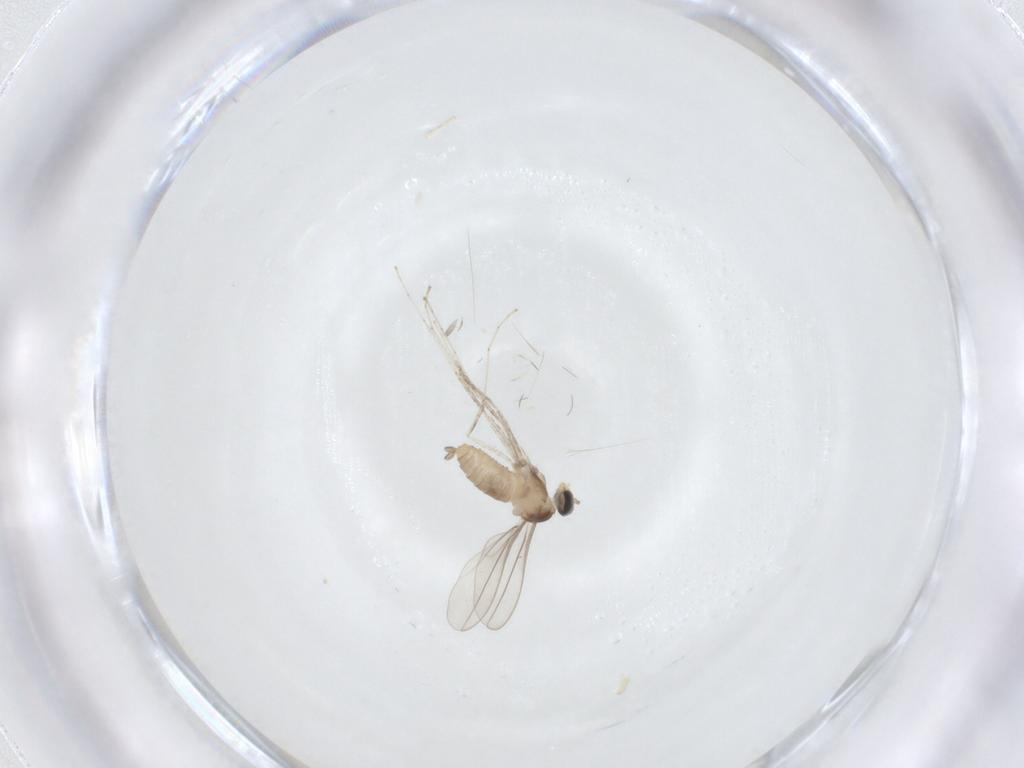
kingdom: Animalia
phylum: Arthropoda
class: Insecta
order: Diptera
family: Cecidomyiidae
